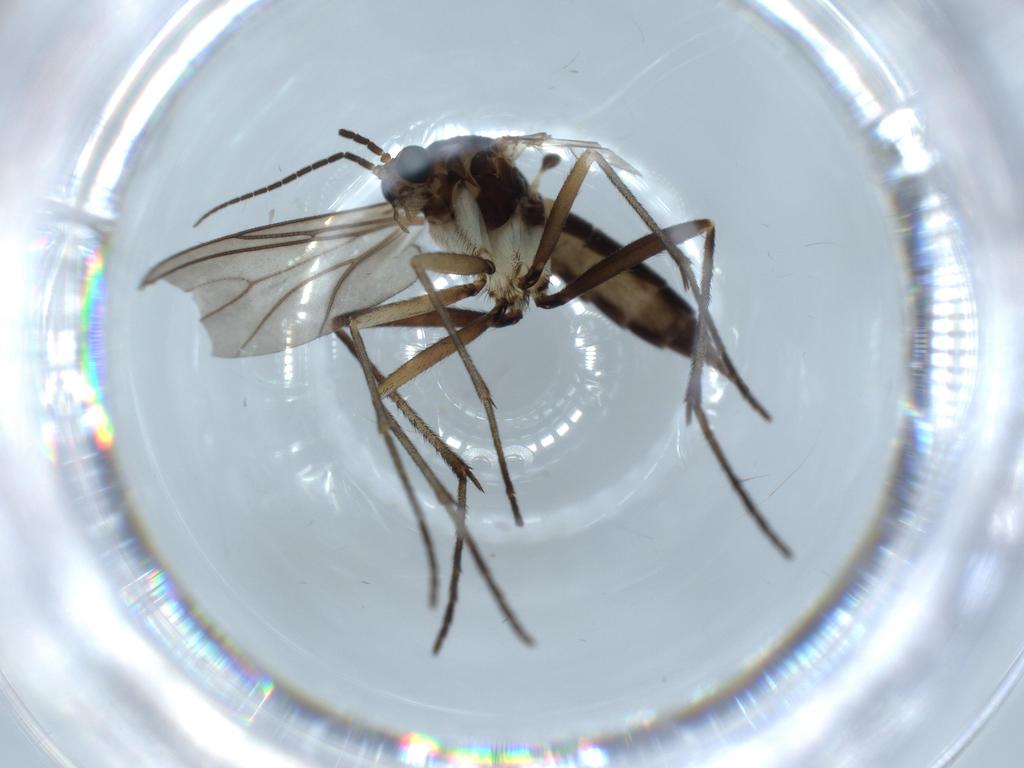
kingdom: Animalia
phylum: Arthropoda
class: Insecta
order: Diptera
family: Sciaridae
